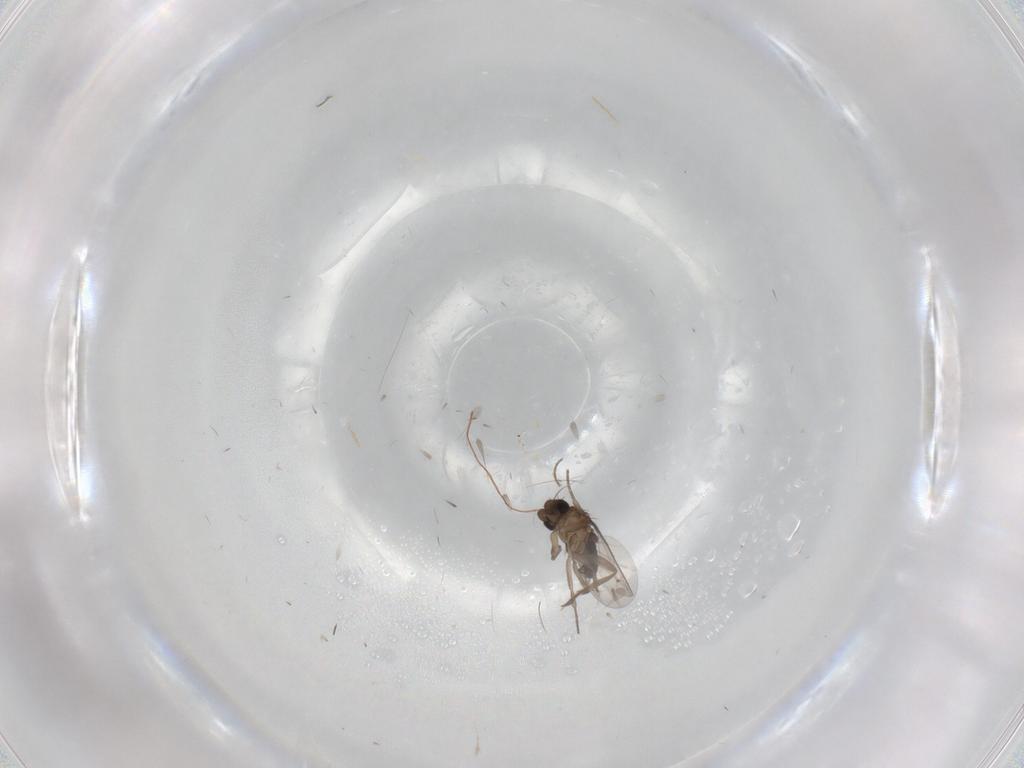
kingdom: Animalia
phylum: Arthropoda
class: Insecta
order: Diptera
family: Phoridae
